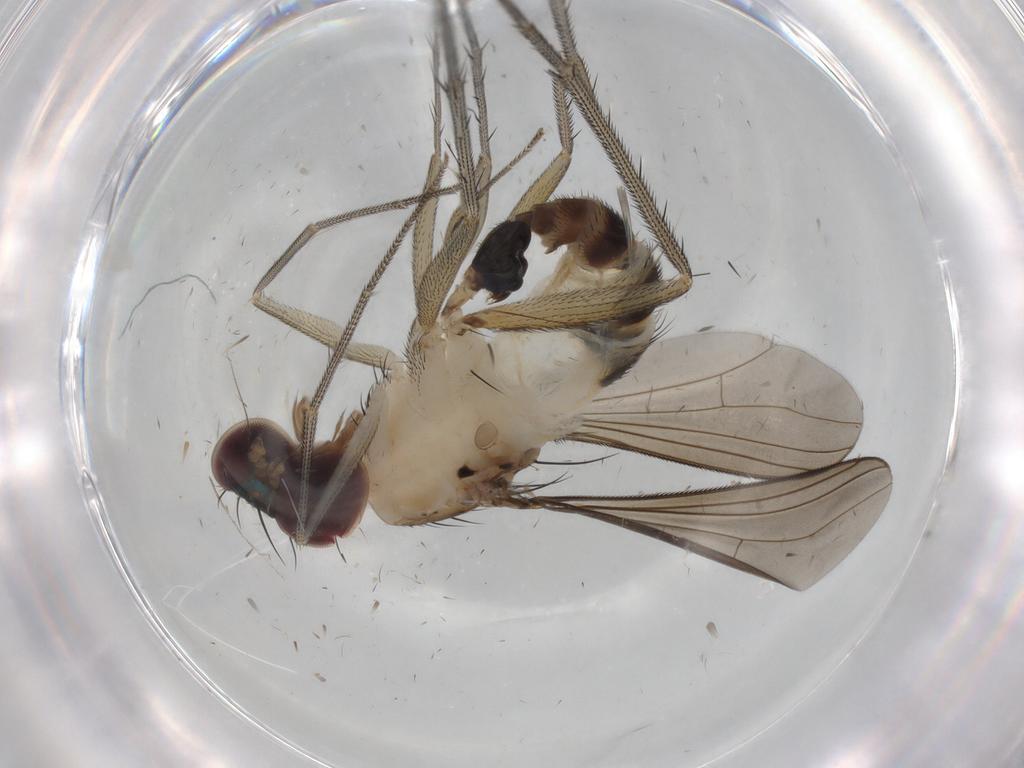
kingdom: Animalia
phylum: Arthropoda
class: Insecta
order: Diptera
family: Dolichopodidae
